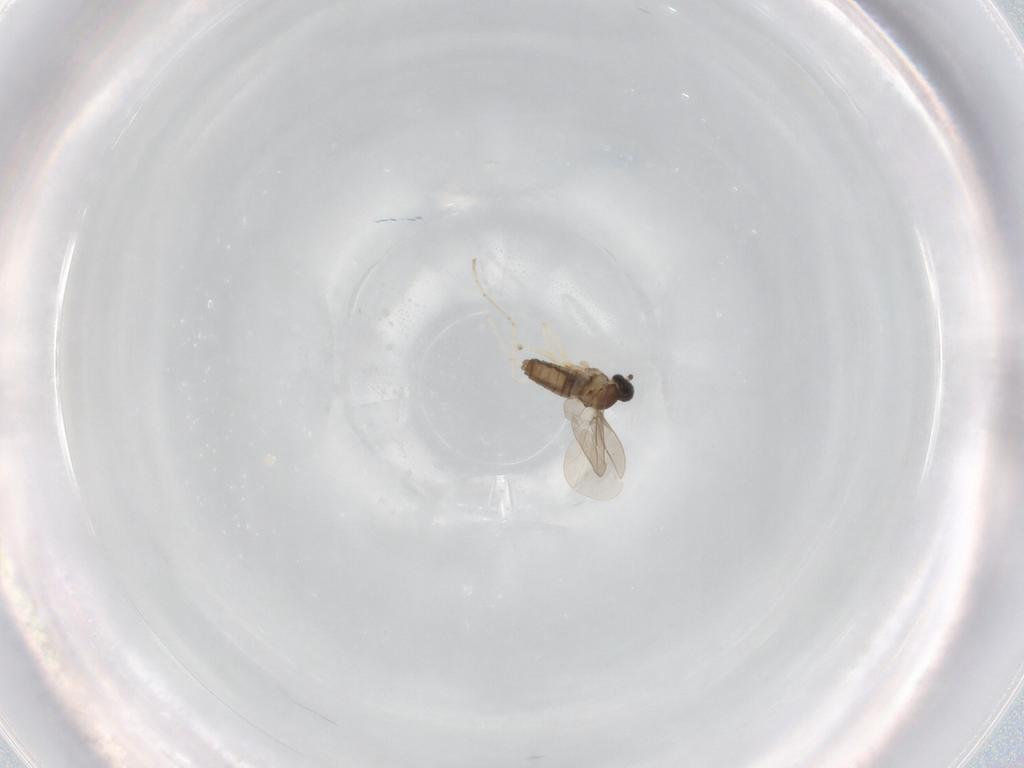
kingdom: Animalia
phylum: Arthropoda
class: Insecta
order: Diptera
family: Cecidomyiidae
